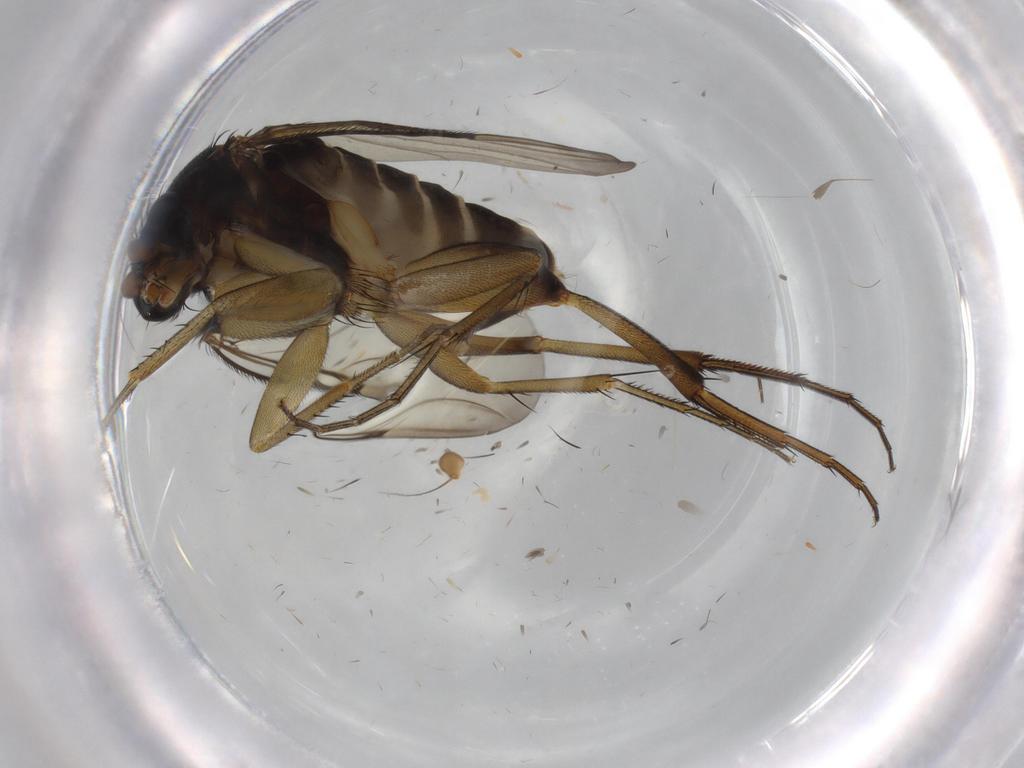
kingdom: Animalia
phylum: Arthropoda
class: Insecta
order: Diptera
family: Phoridae
